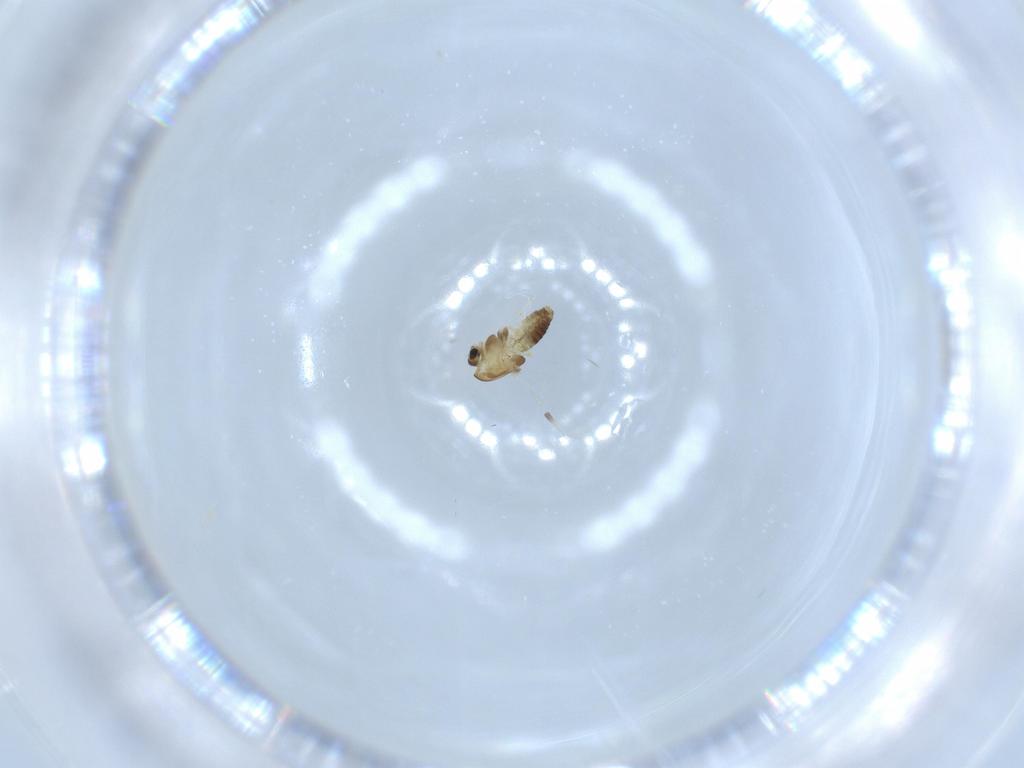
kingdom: Animalia
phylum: Arthropoda
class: Insecta
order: Diptera
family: Chironomidae
